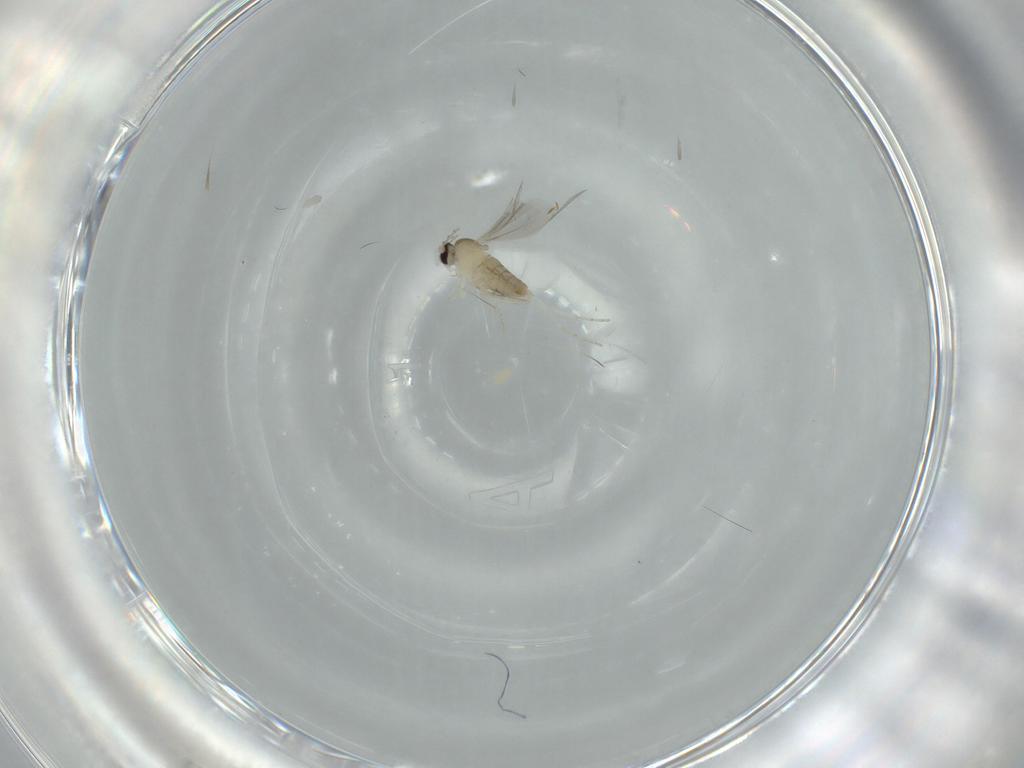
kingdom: Animalia
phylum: Arthropoda
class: Insecta
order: Diptera
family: Cecidomyiidae
